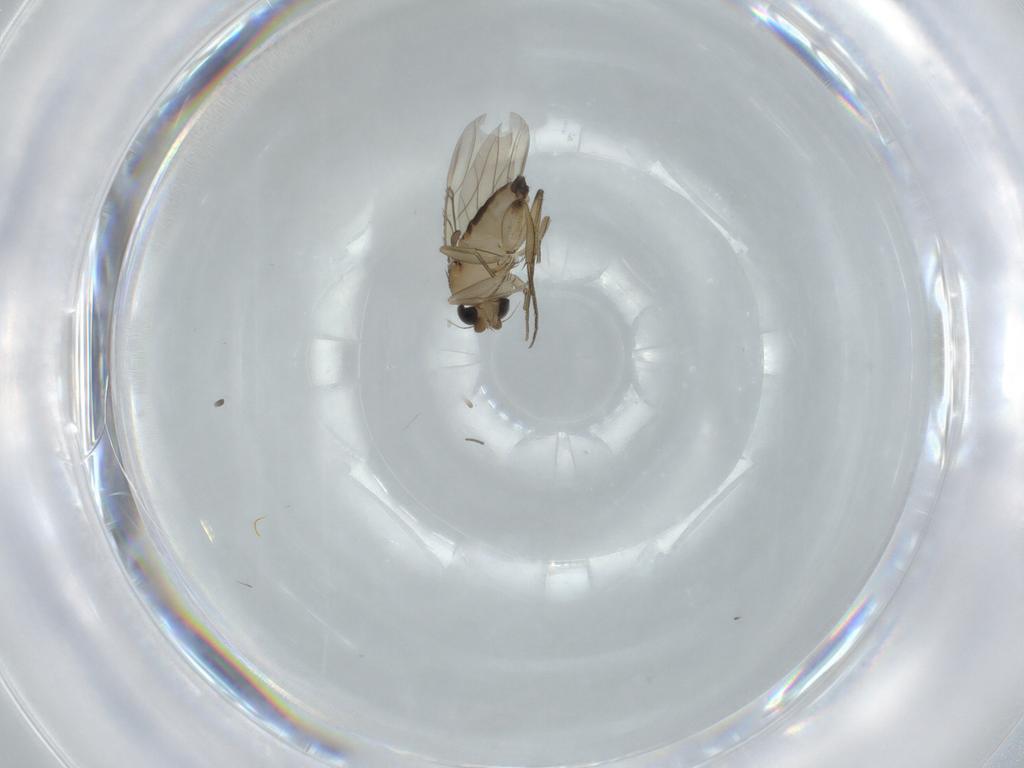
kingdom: Animalia
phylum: Arthropoda
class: Insecta
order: Diptera
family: Phoridae
